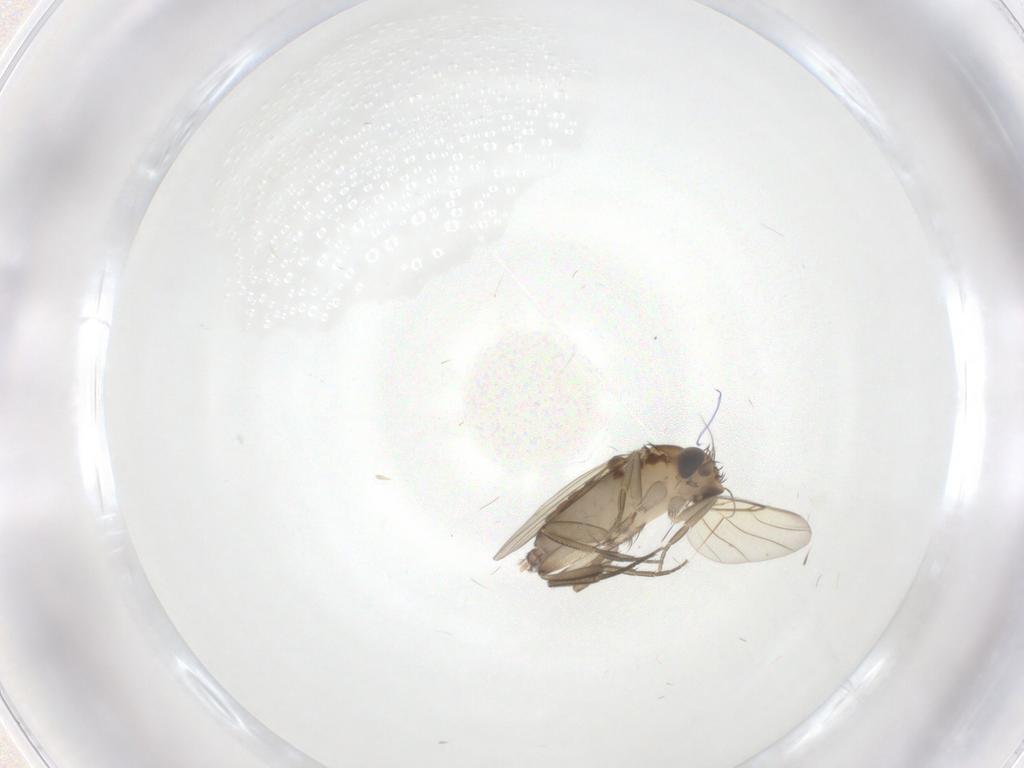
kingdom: Animalia
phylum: Arthropoda
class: Insecta
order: Diptera
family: Phoridae
